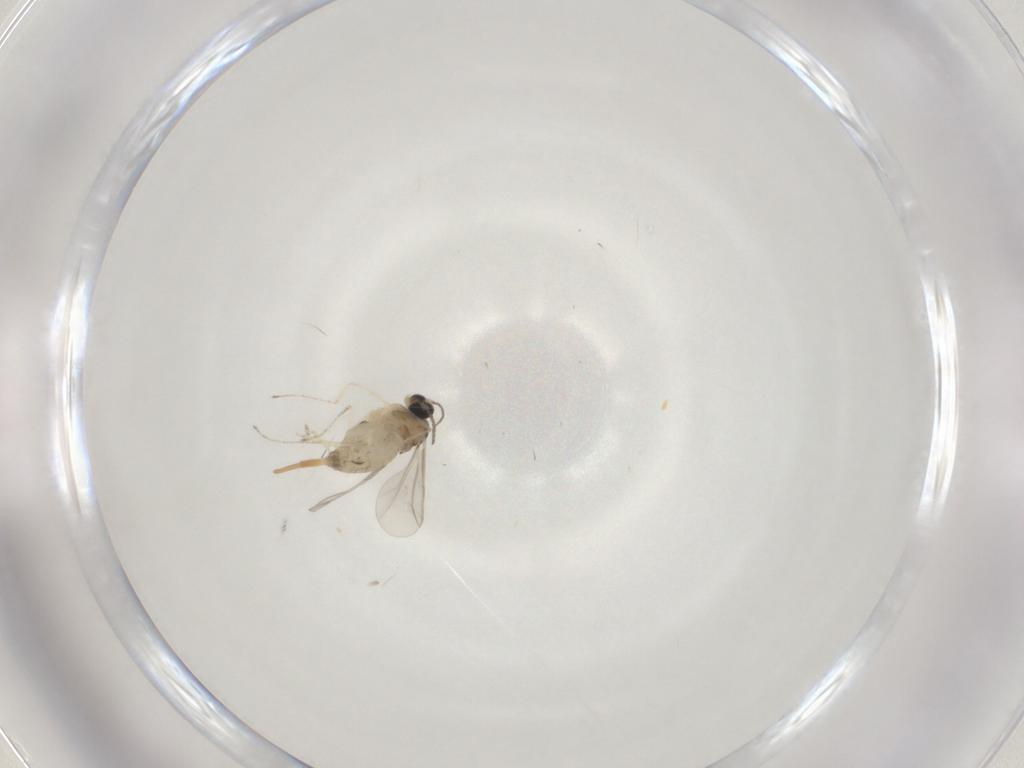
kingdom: Animalia
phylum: Arthropoda
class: Insecta
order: Diptera
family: Cecidomyiidae
